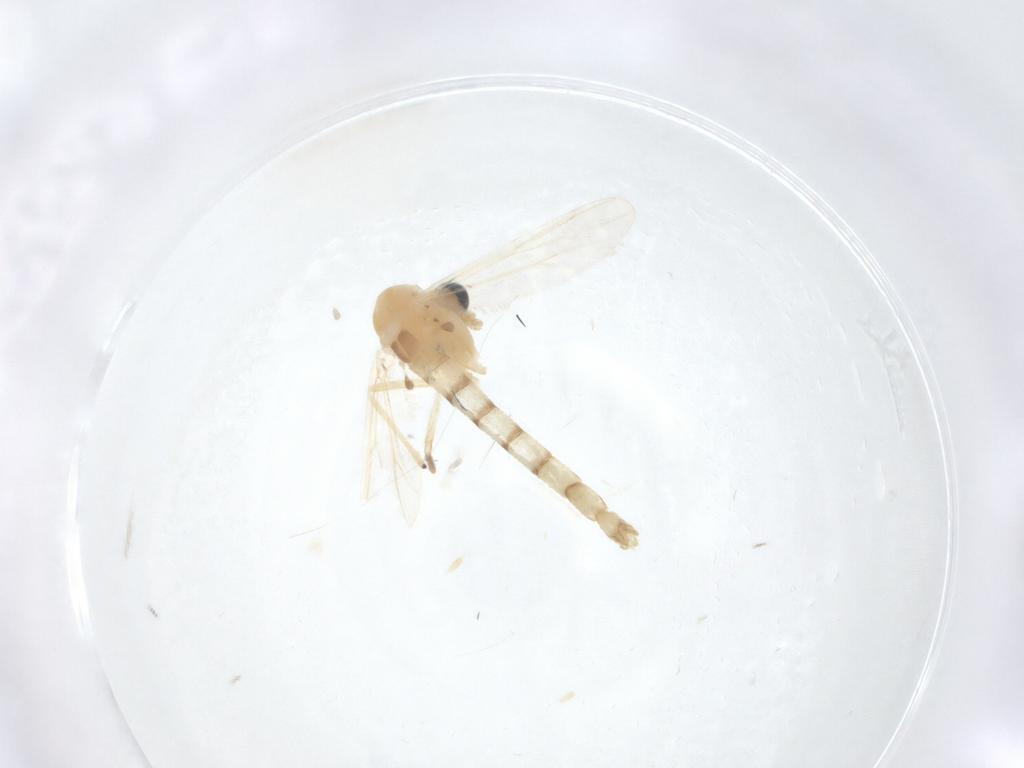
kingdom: Animalia
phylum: Arthropoda
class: Insecta
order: Diptera
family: Chironomidae
